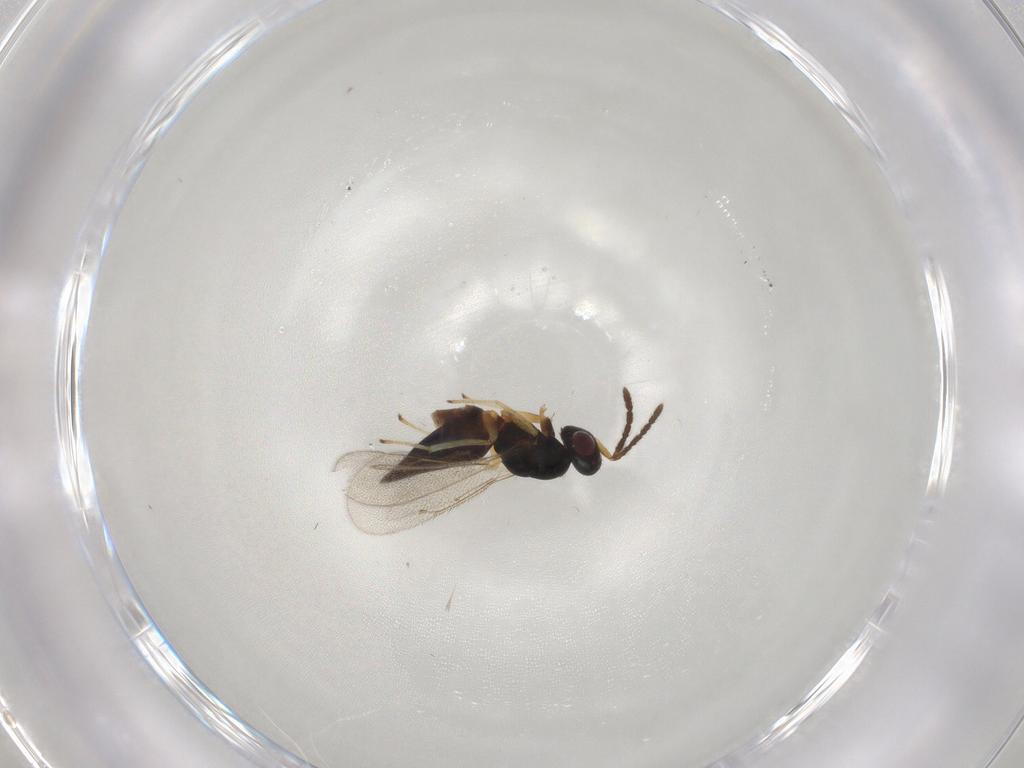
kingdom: Animalia
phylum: Arthropoda
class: Insecta
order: Hymenoptera
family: Eulophidae
